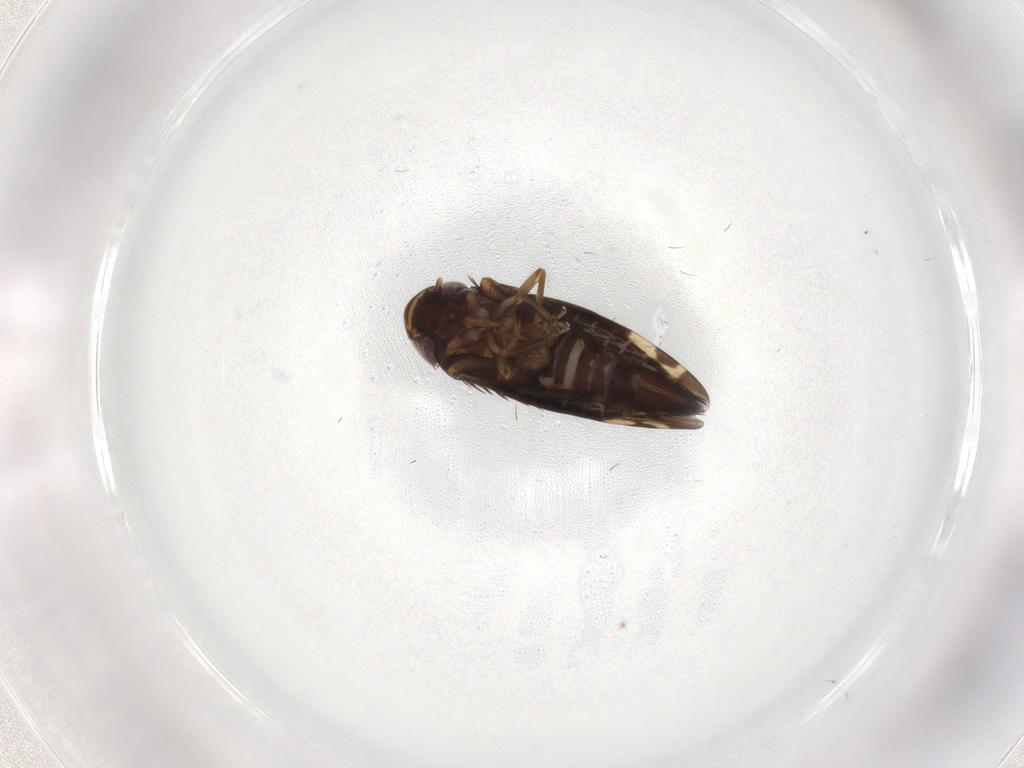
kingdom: Animalia
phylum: Arthropoda
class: Insecta
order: Hemiptera
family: Cicadellidae
